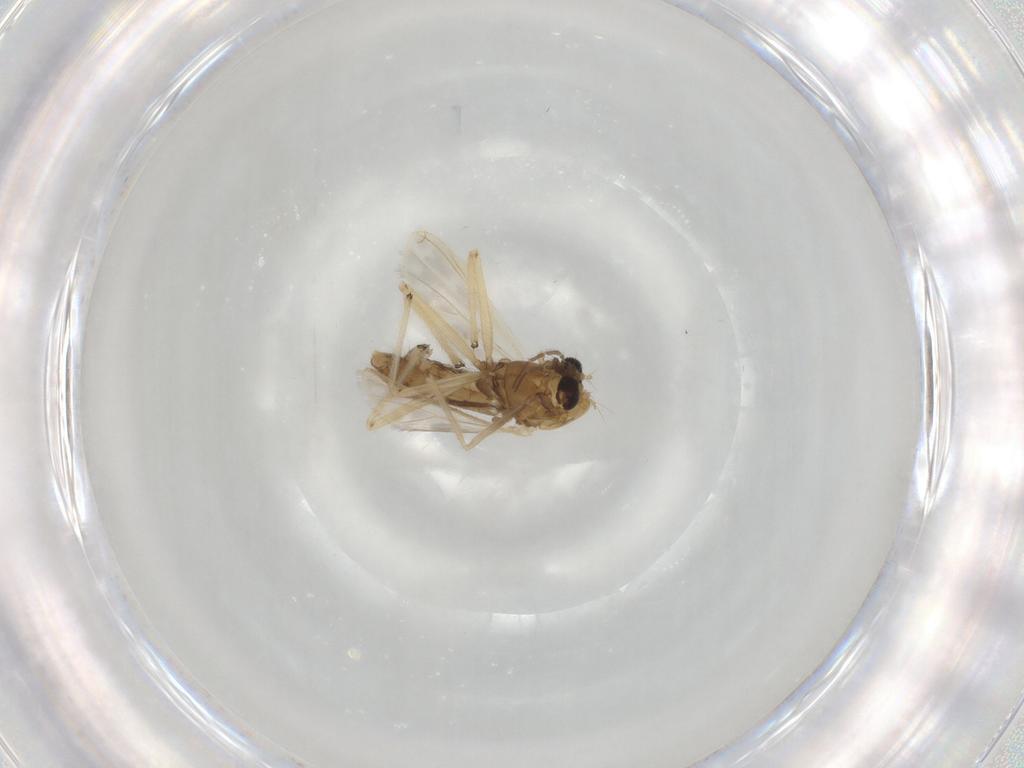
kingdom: Animalia
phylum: Arthropoda
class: Insecta
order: Diptera
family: Chironomidae
